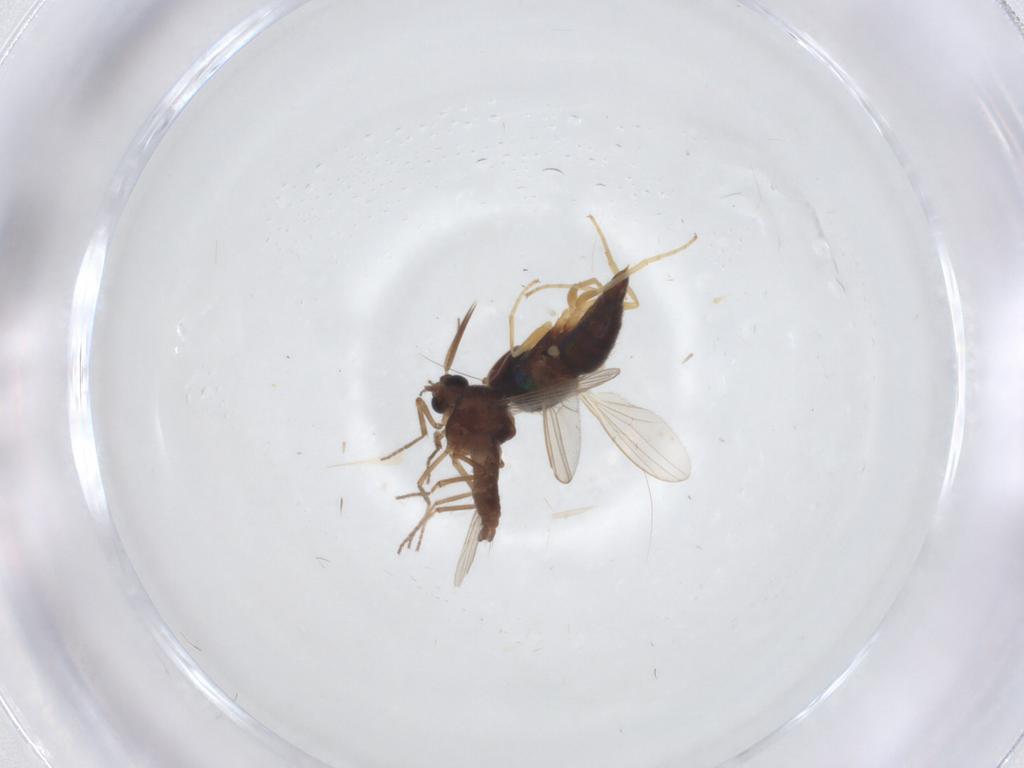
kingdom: Animalia
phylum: Arthropoda
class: Insecta
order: Diptera
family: Ceratopogonidae
